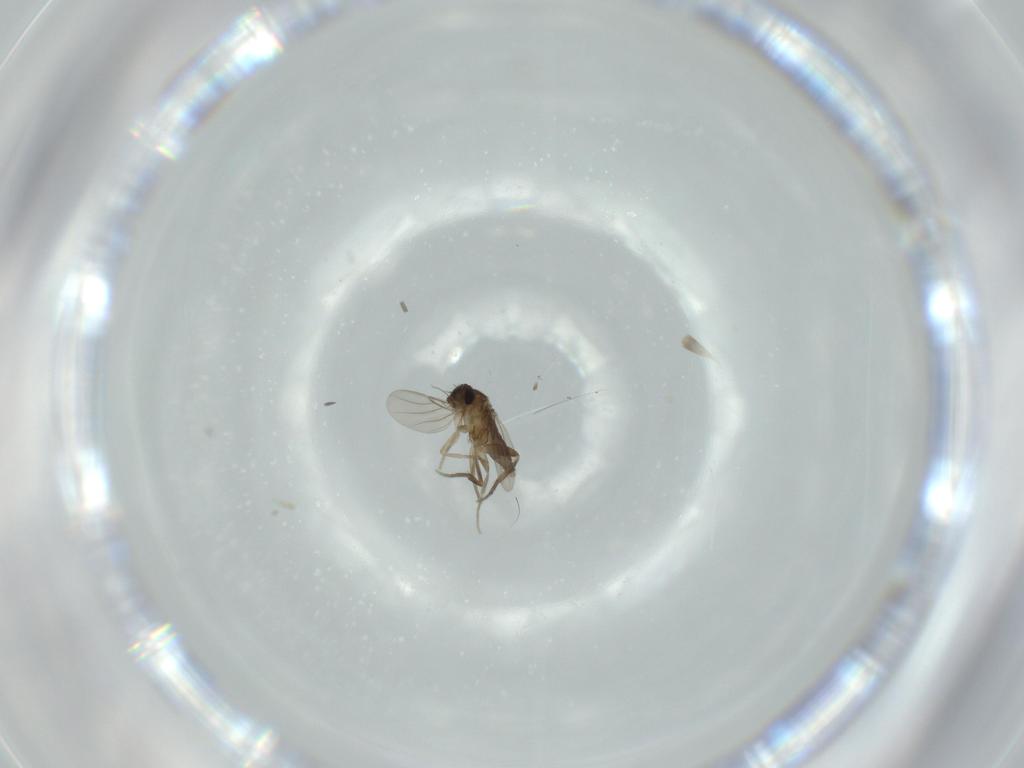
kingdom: Animalia
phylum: Arthropoda
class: Insecta
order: Diptera
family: Phoridae
